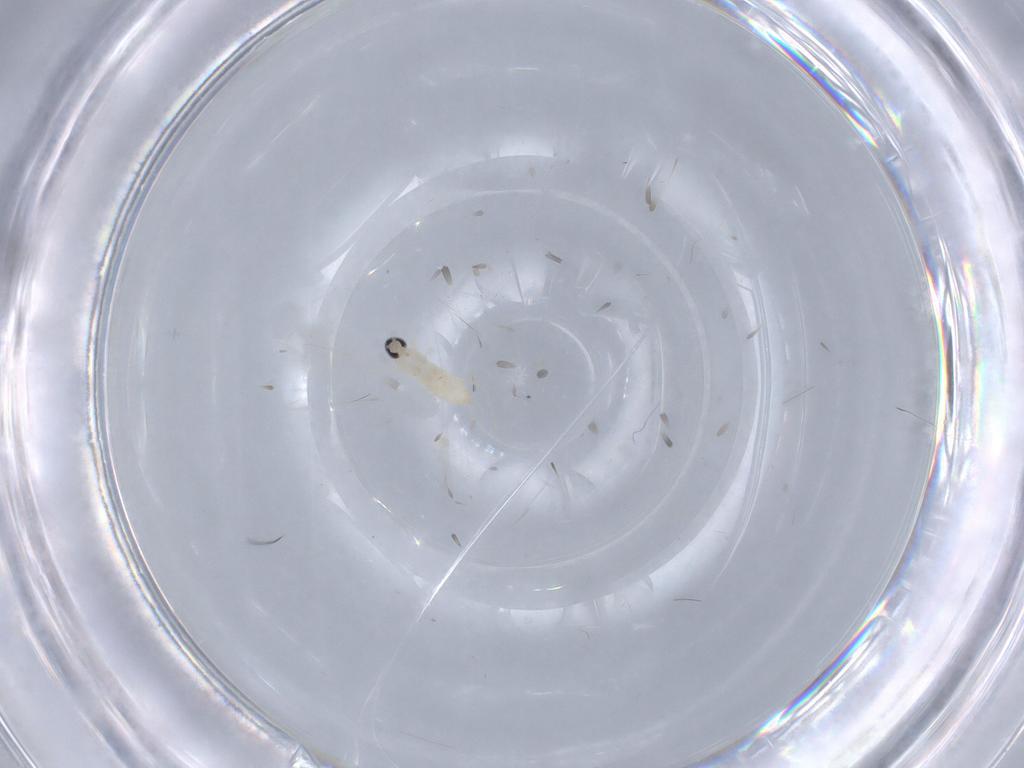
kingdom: Animalia
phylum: Arthropoda
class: Insecta
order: Diptera
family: Cecidomyiidae
